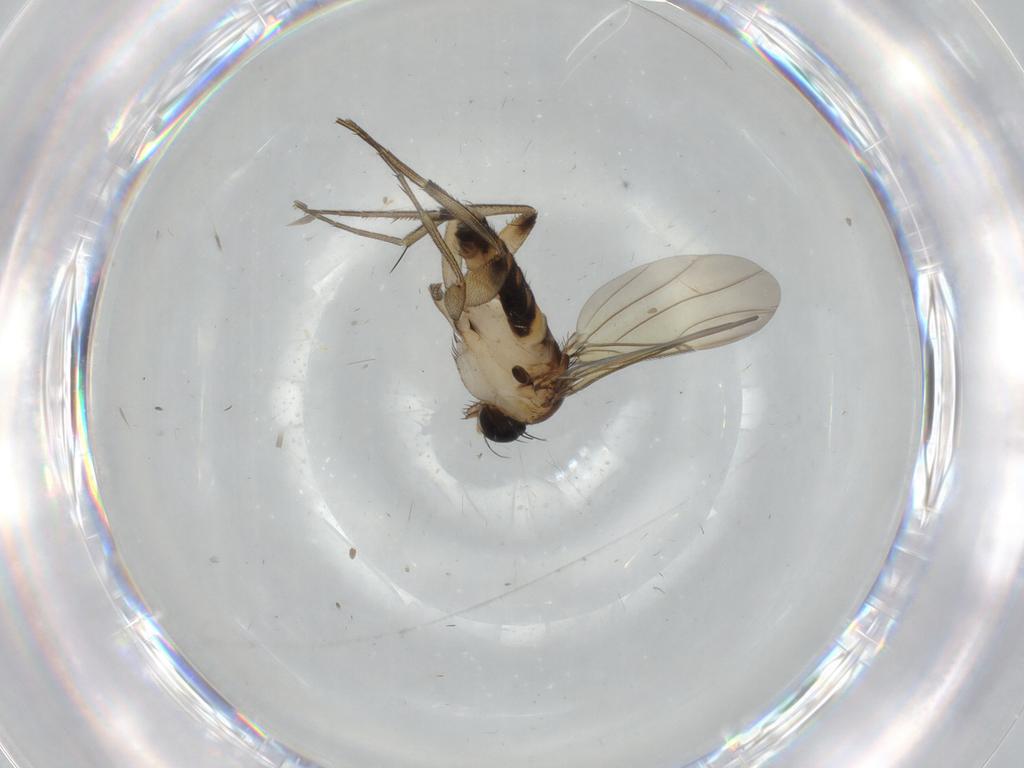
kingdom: Animalia
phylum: Arthropoda
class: Insecta
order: Diptera
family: Phoridae
